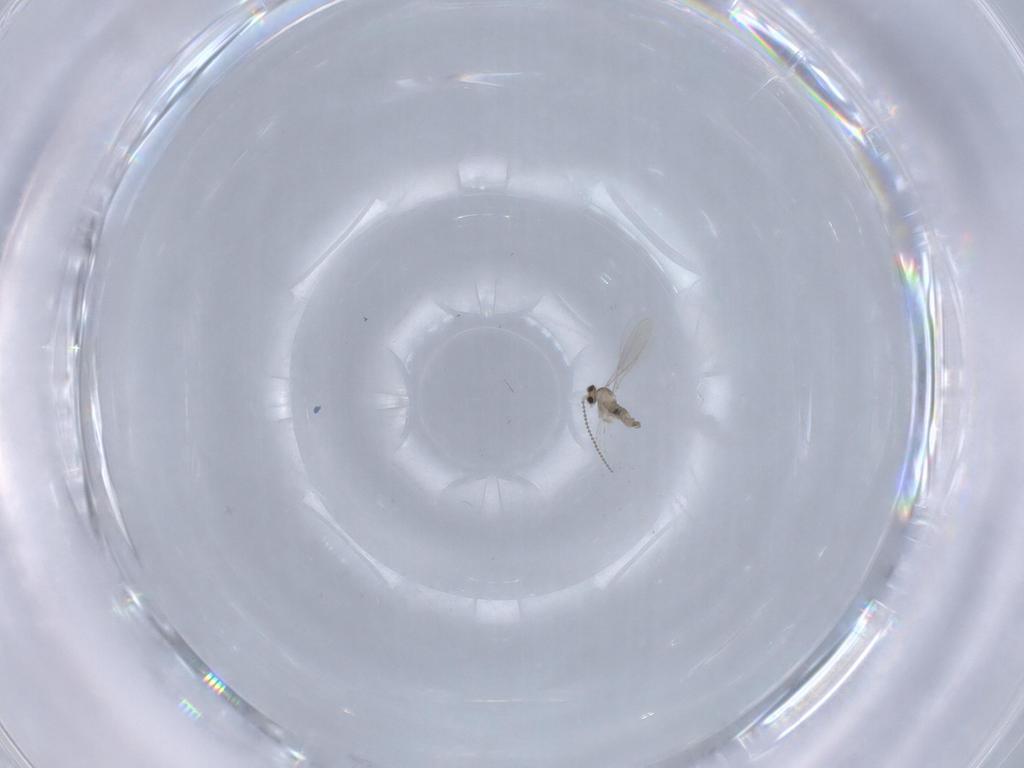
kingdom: Animalia
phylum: Arthropoda
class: Insecta
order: Diptera
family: Cecidomyiidae
